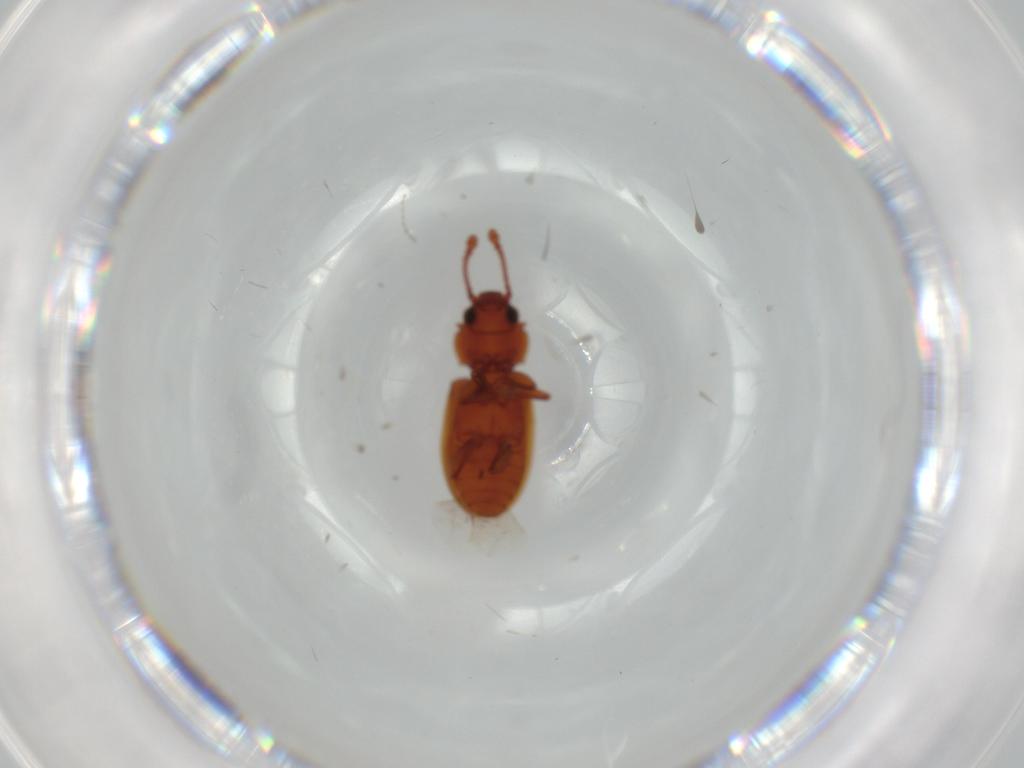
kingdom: Animalia
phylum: Arthropoda
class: Insecta
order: Coleoptera
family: Silvanidae
